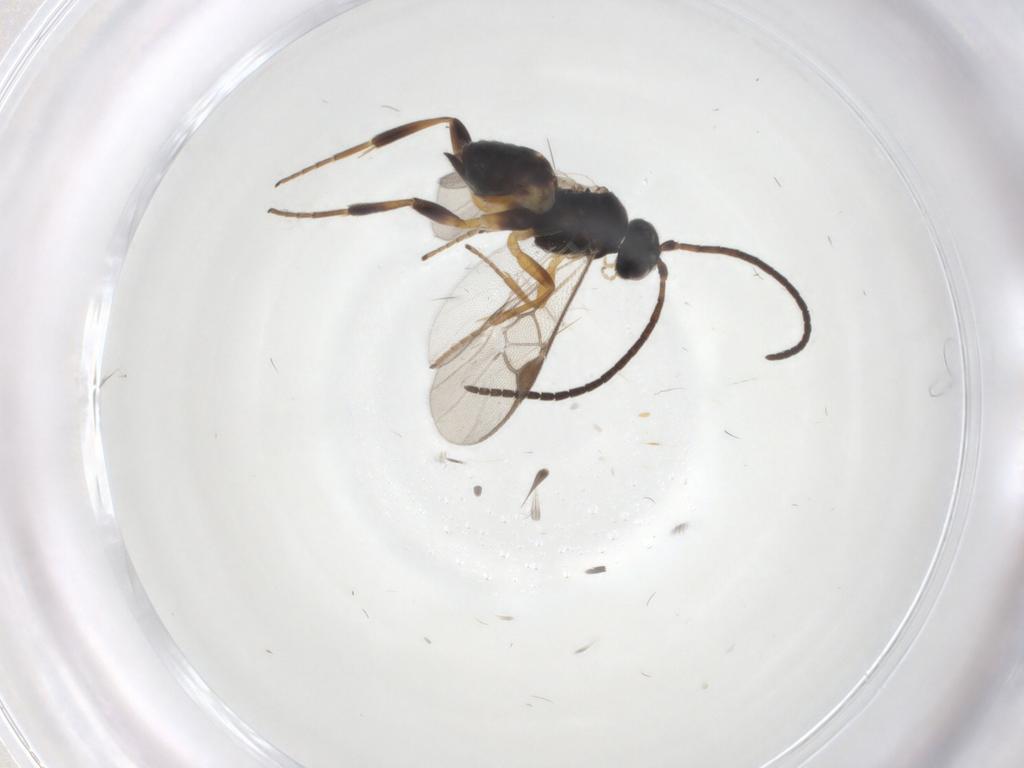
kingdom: Animalia
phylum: Arthropoda
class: Insecta
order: Hymenoptera
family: Braconidae
